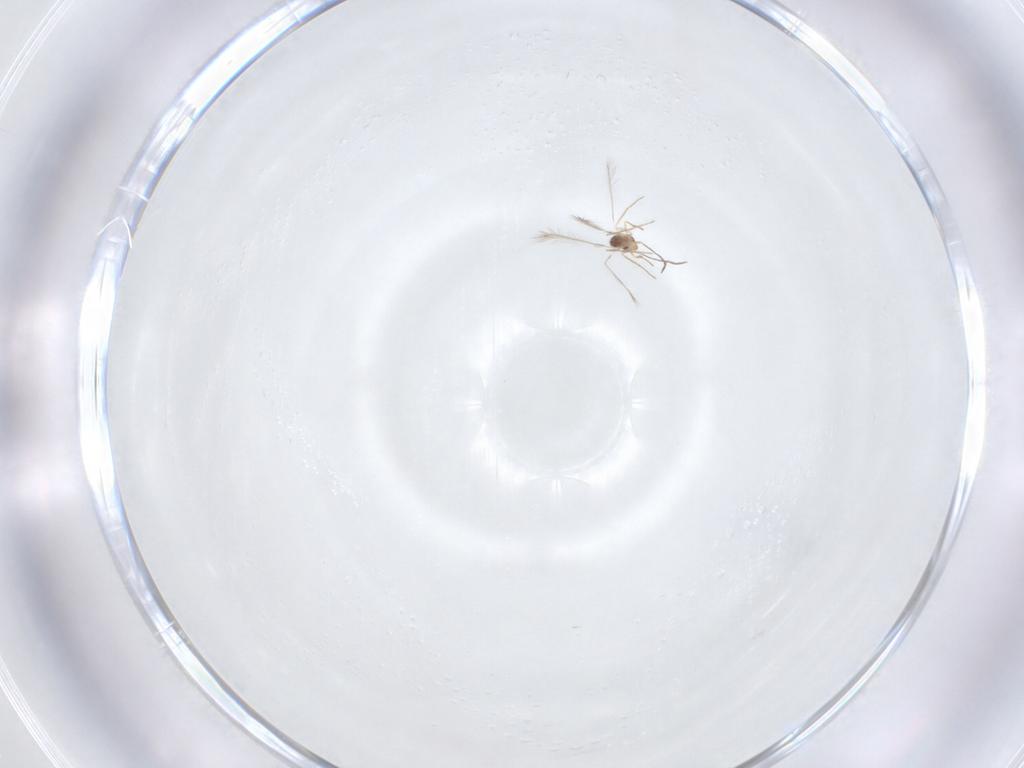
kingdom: Animalia
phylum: Arthropoda
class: Insecta
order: Hymenoptera
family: Mymaridae
